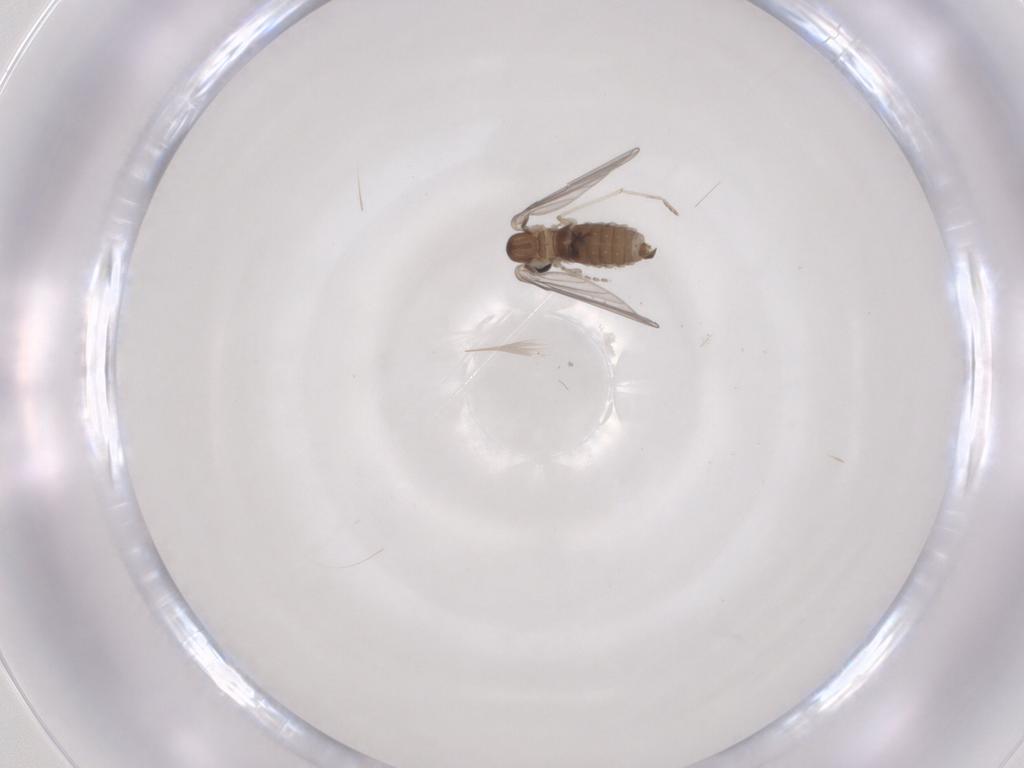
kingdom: Animalia
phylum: Arthropoda
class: Insecta
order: Diptera
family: Psychodidae
